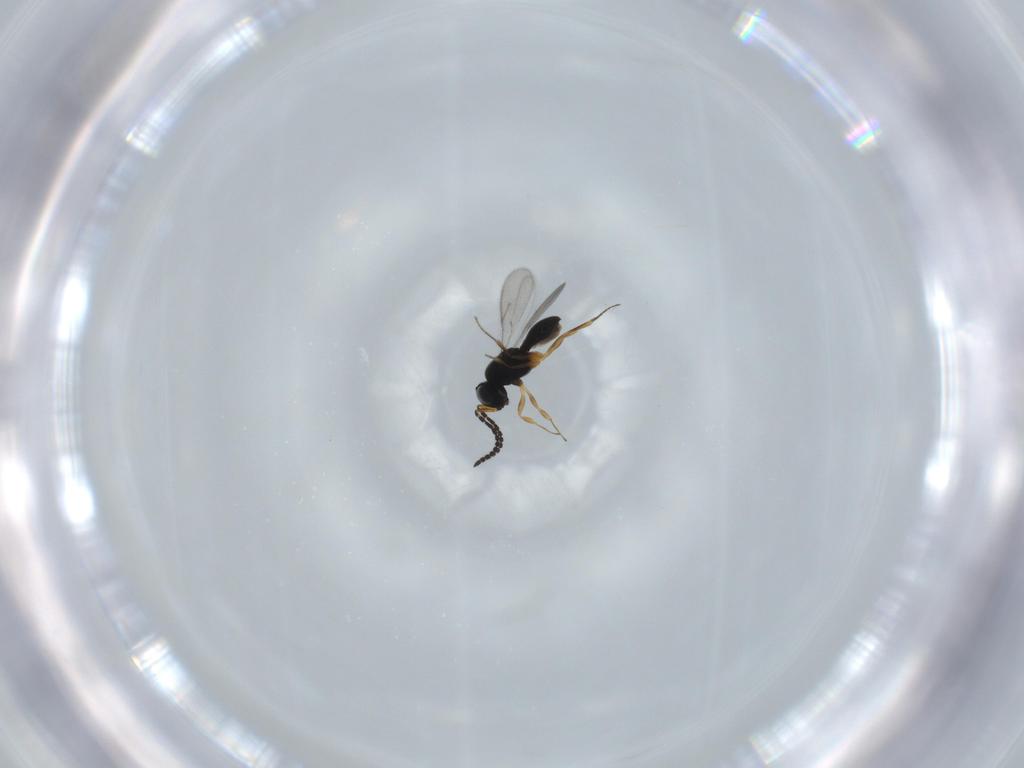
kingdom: Animalia
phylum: Arthropoda
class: Insecta
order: Hymenoptera
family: Scelionidae
